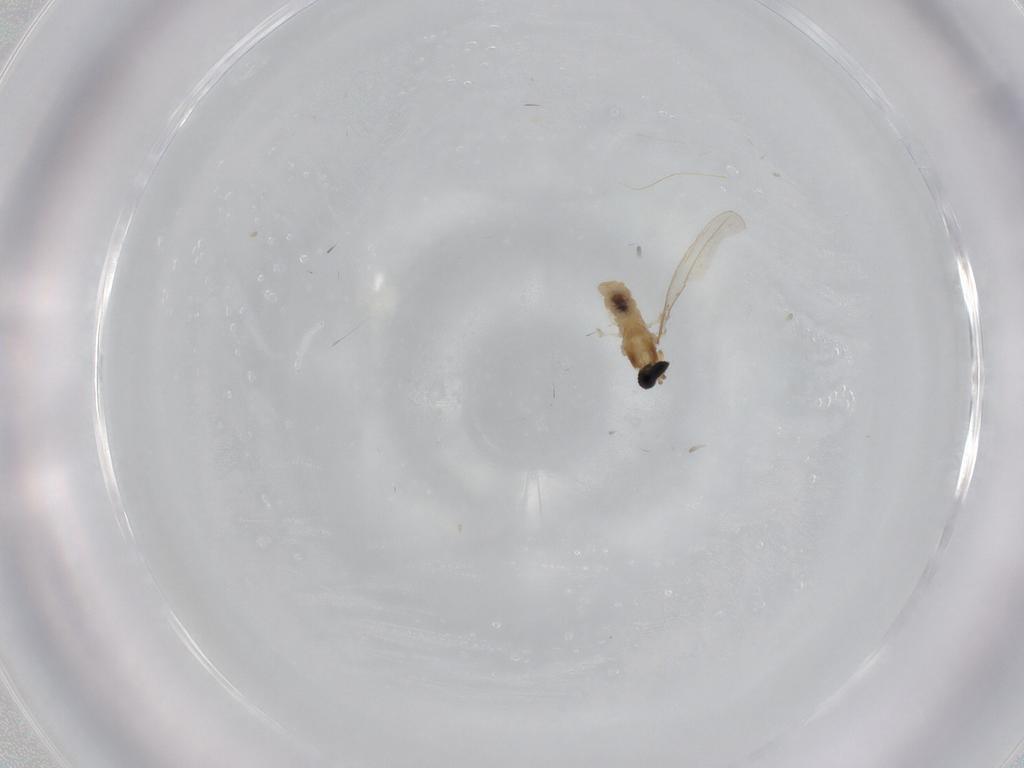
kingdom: Animalia
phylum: Arthropoda
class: Insecta
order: Diptera
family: Cecidomyiidae
